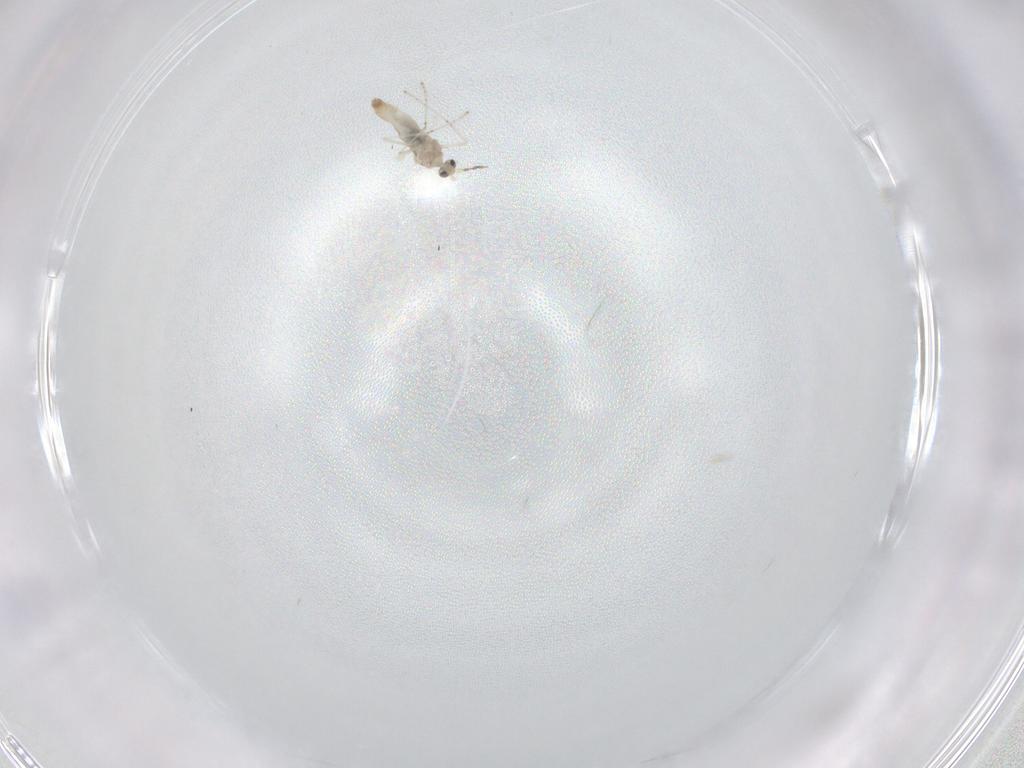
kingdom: Animalia
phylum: Arthropoda
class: Insecta
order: Diptera
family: Cecidomyiidae
